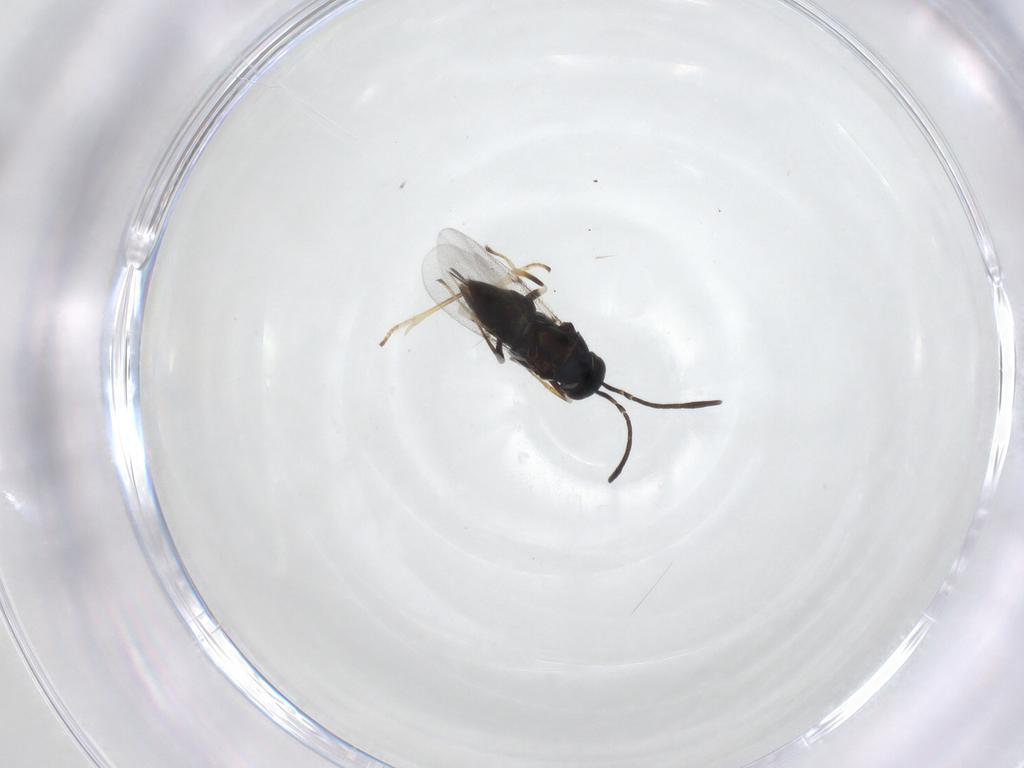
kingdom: Animalia
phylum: Arthropoda
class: Insecta
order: Hymenoptera
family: Encyrtidae
